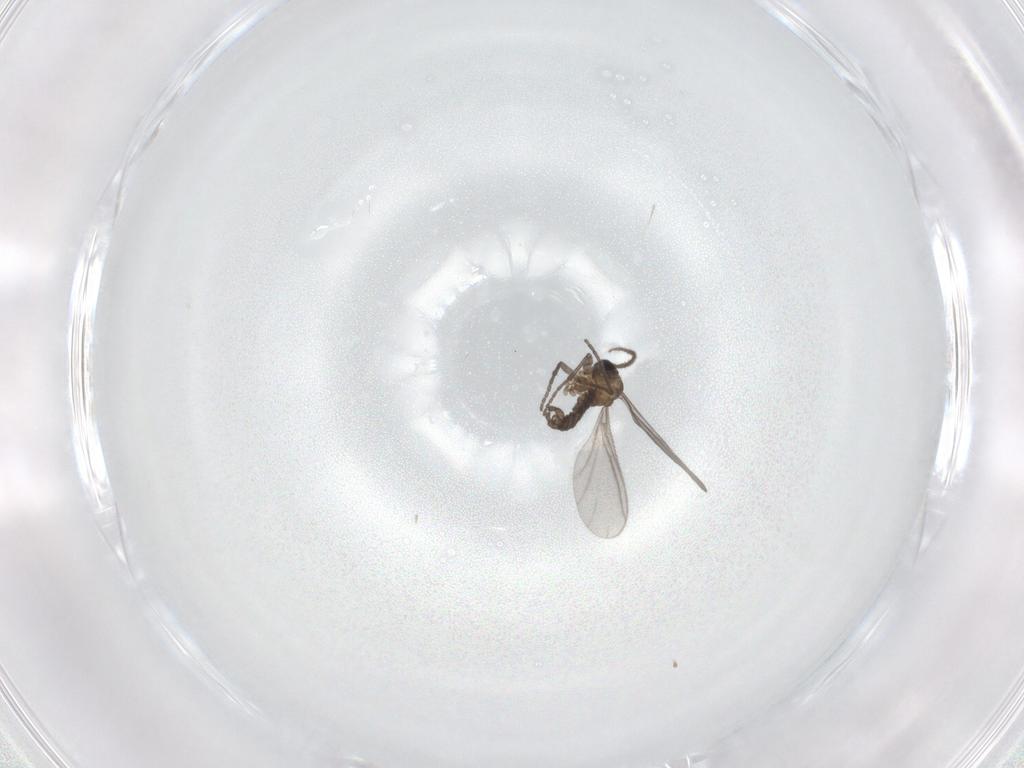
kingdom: Animalia
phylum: Arthropoda
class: Insecta
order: Diptera
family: Sciaridae
